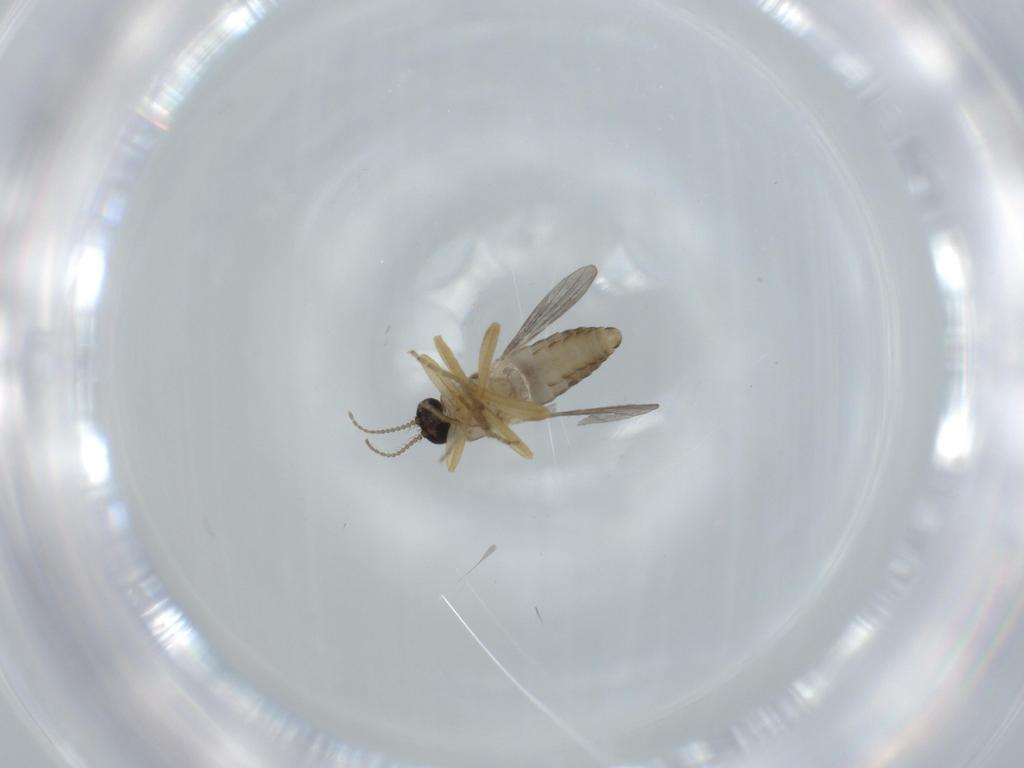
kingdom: Animalia
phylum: Arthropoda
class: Insecta
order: Diptera
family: Ceratopogonidae
